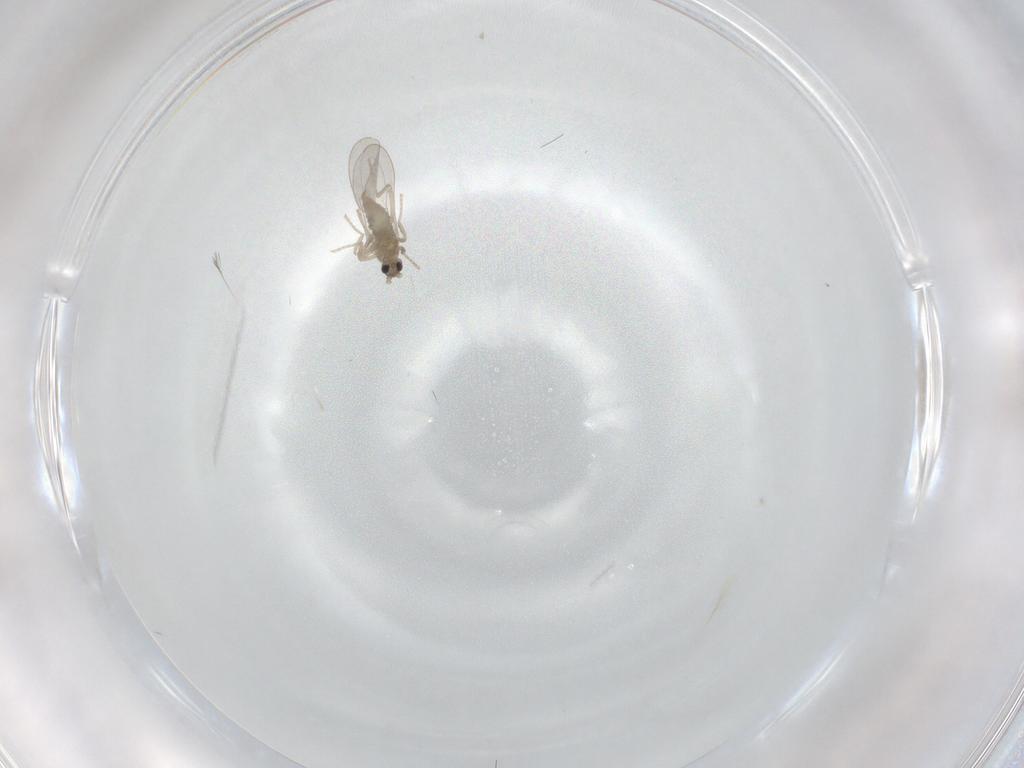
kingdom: Animalia
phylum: Arthropoda
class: Insecta
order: Diptera
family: Cecidomyiidae
